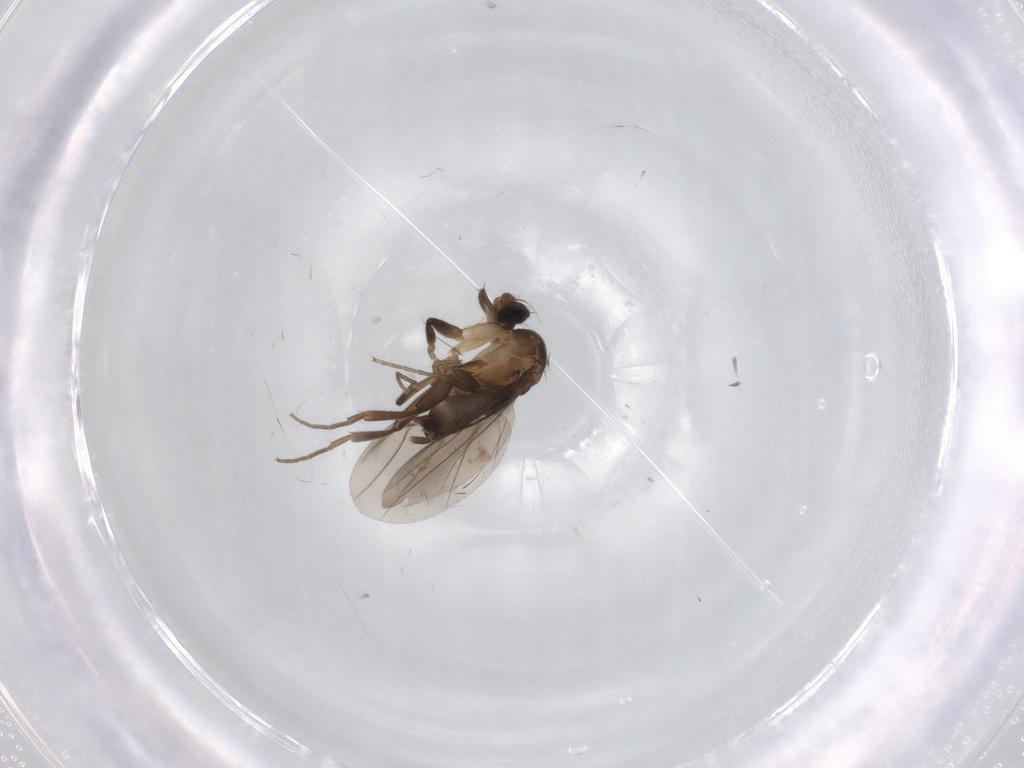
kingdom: Animalia
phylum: Arthropoda
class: Insecta
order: Diptera
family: Phoridae
